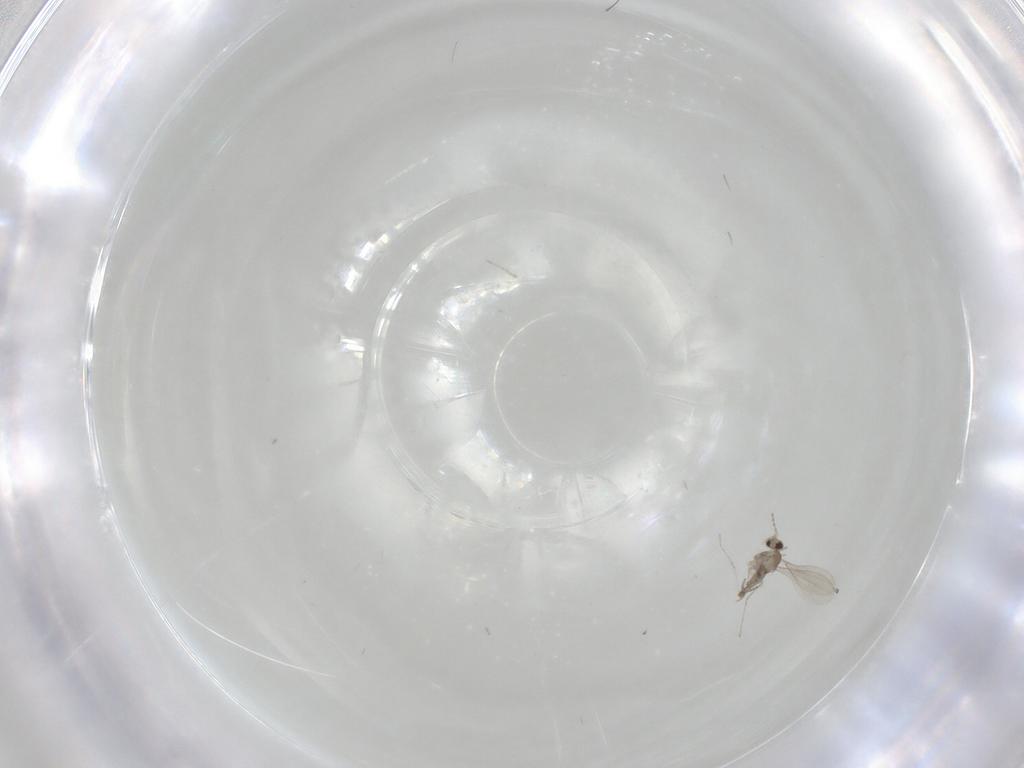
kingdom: Animalia
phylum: Arthropoda
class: Insecta
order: Diptera
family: Cecidomyiidae
